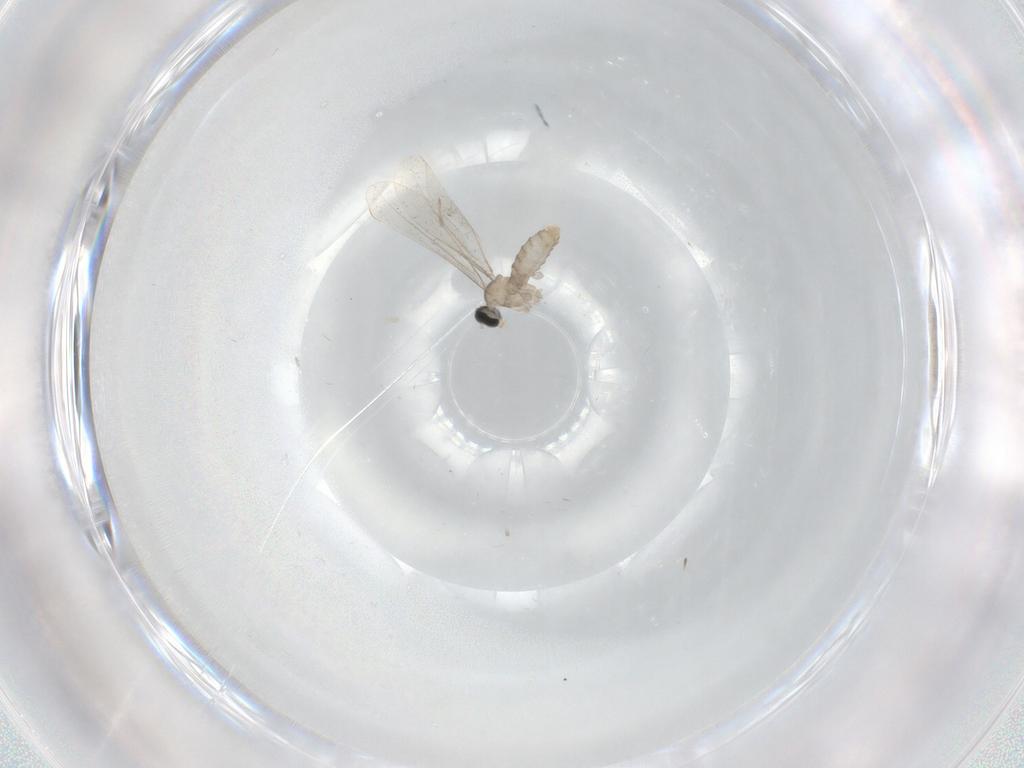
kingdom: Animalia
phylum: Arthropoda
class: Insecta
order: Diptera
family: Cecidomyiidae
